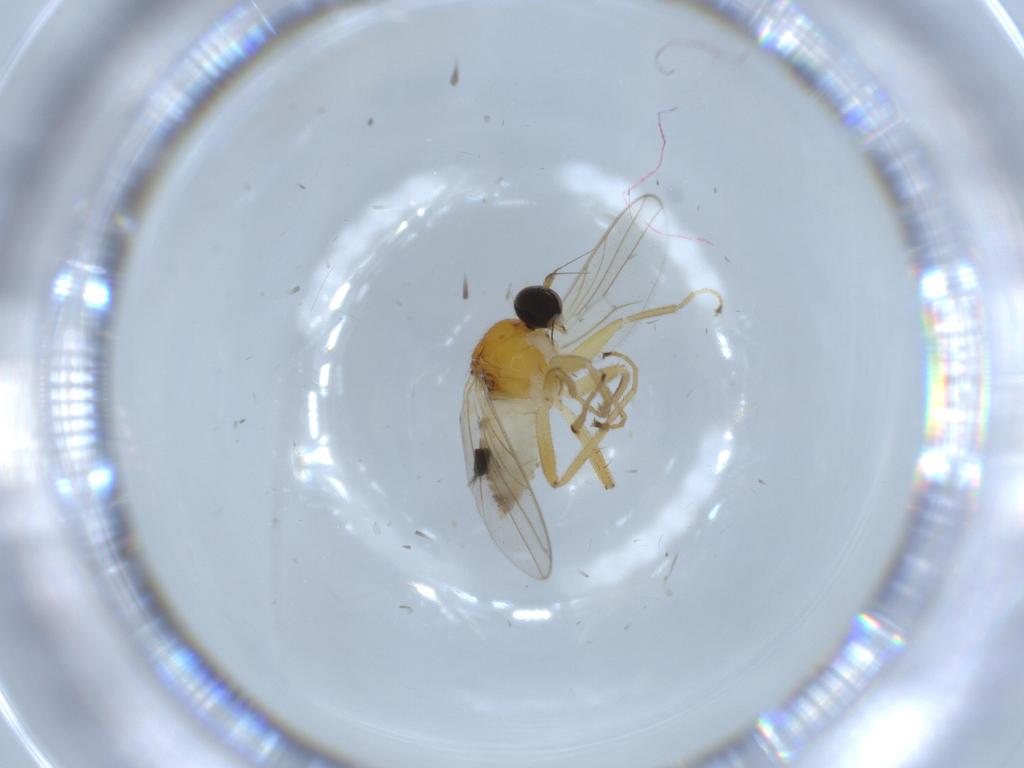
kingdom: Animalia
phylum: Arthropoda
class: Insecta
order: Diptera
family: Hybotidae
